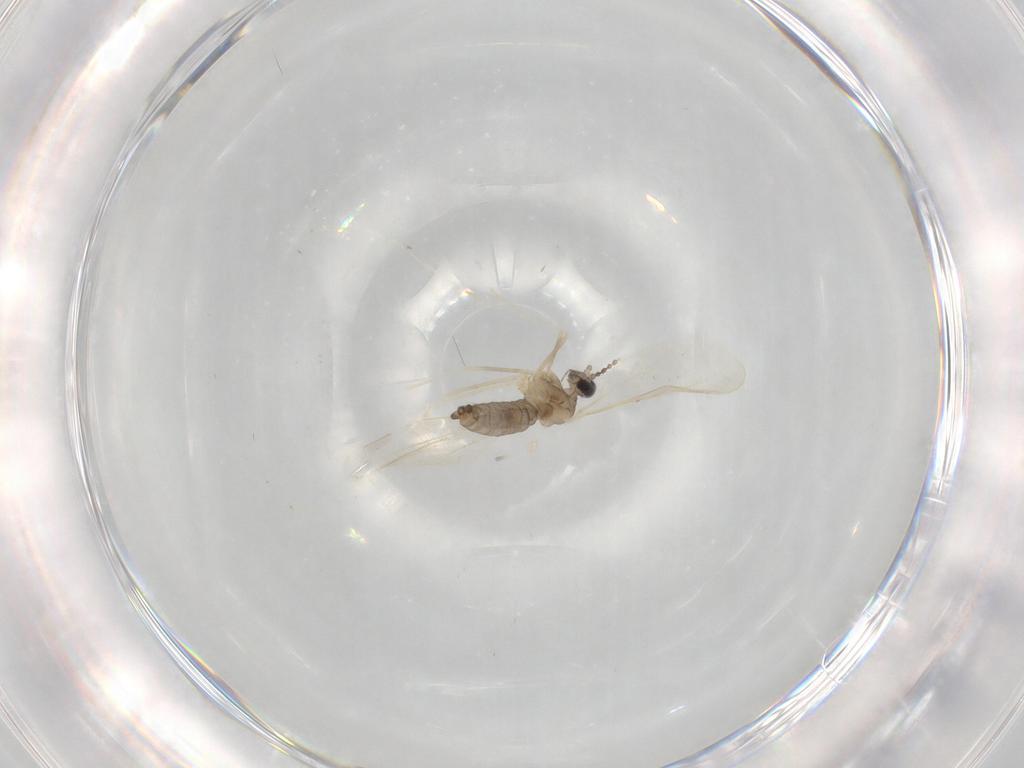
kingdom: Animalia
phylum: Arthropoda
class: Insecta
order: Diptera
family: Cecidomyiidae
